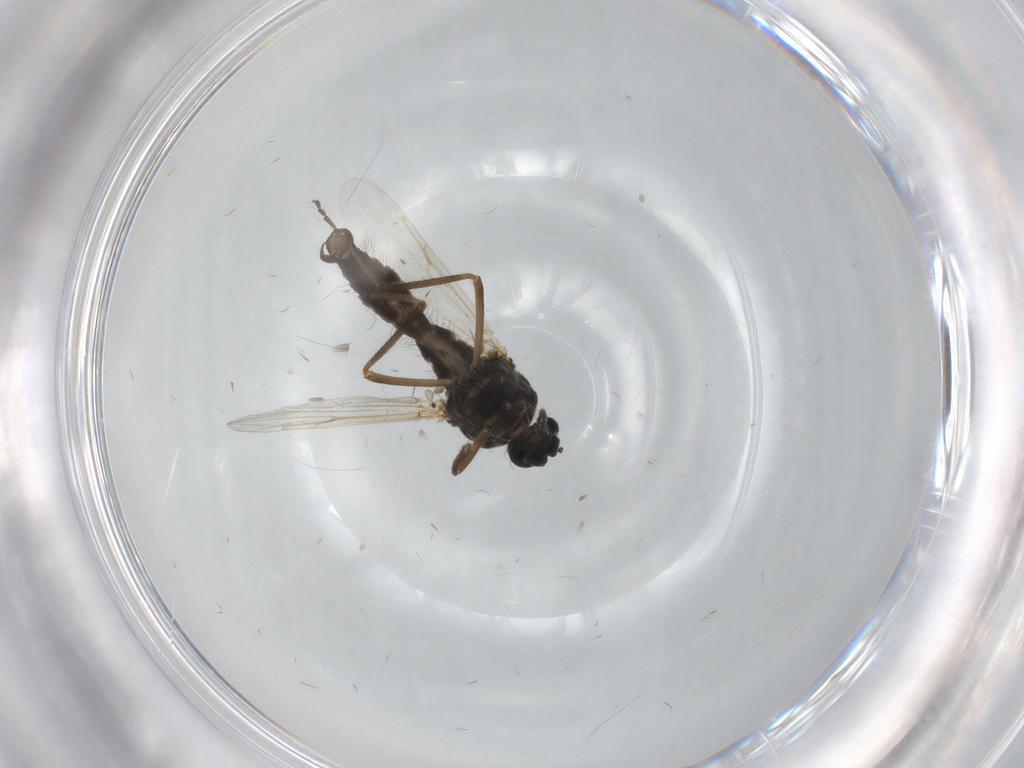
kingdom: Animalia
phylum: Arthropoda
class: Insecta
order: Diptera
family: Ceratopogonidae
